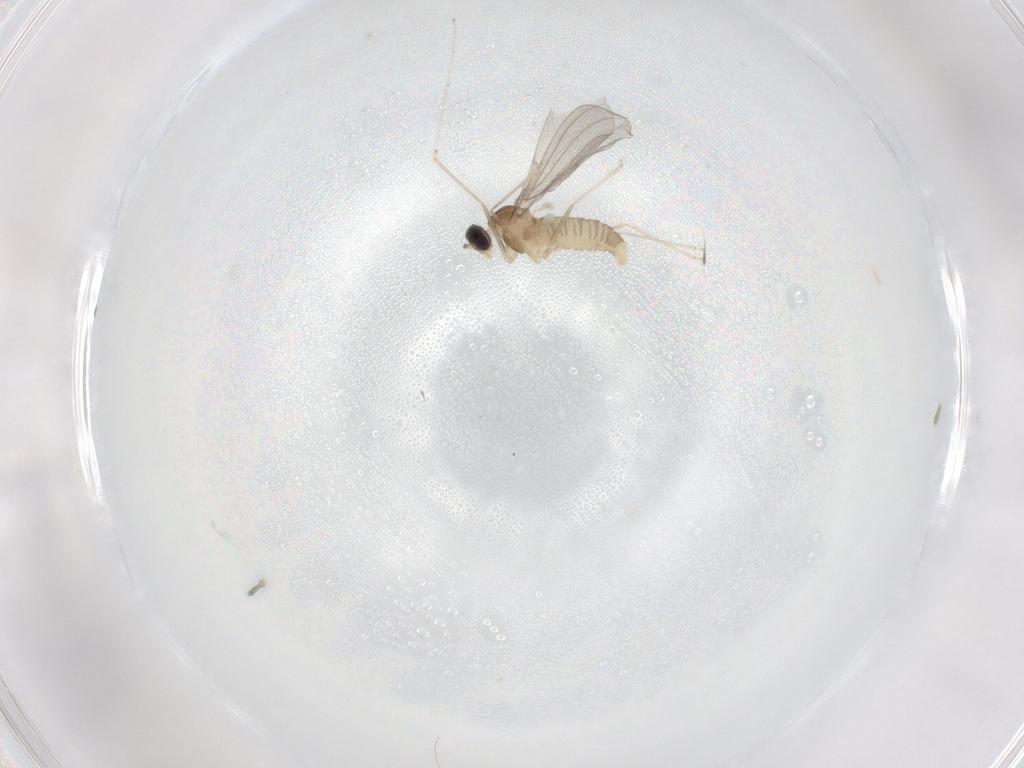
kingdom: Animalia
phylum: Arthropoda
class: Insecta
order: Diptera
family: Cecidomyiidae
